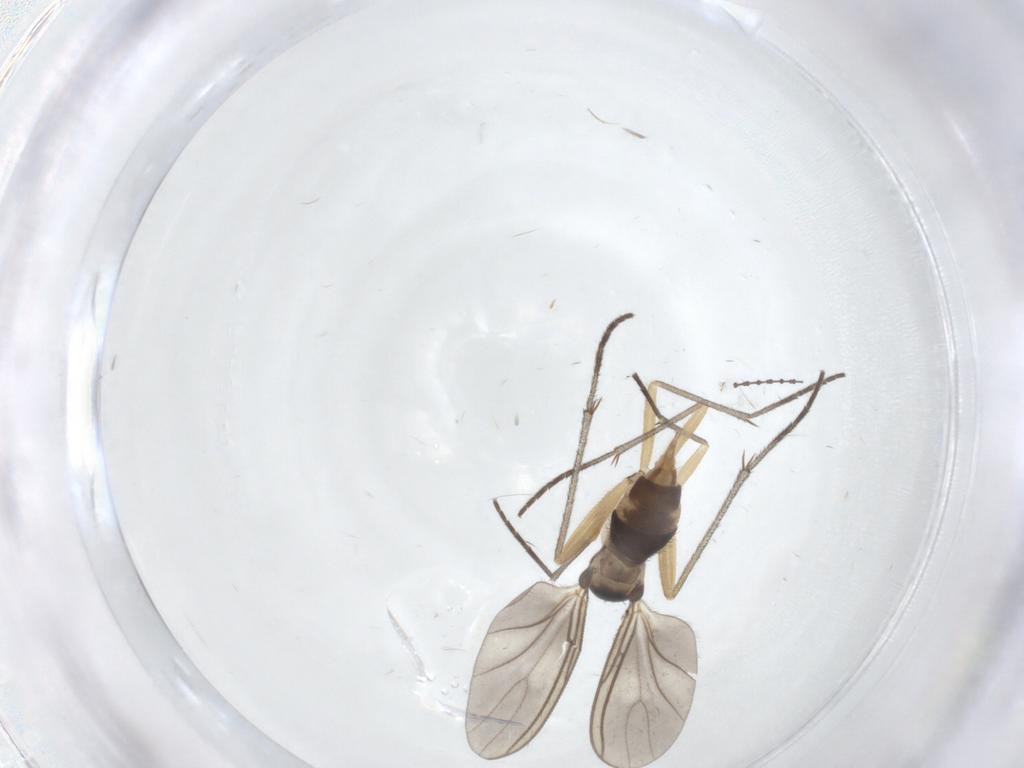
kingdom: Animalia
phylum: Arthropoda
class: Insecta
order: Diptera
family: Sciaridae
